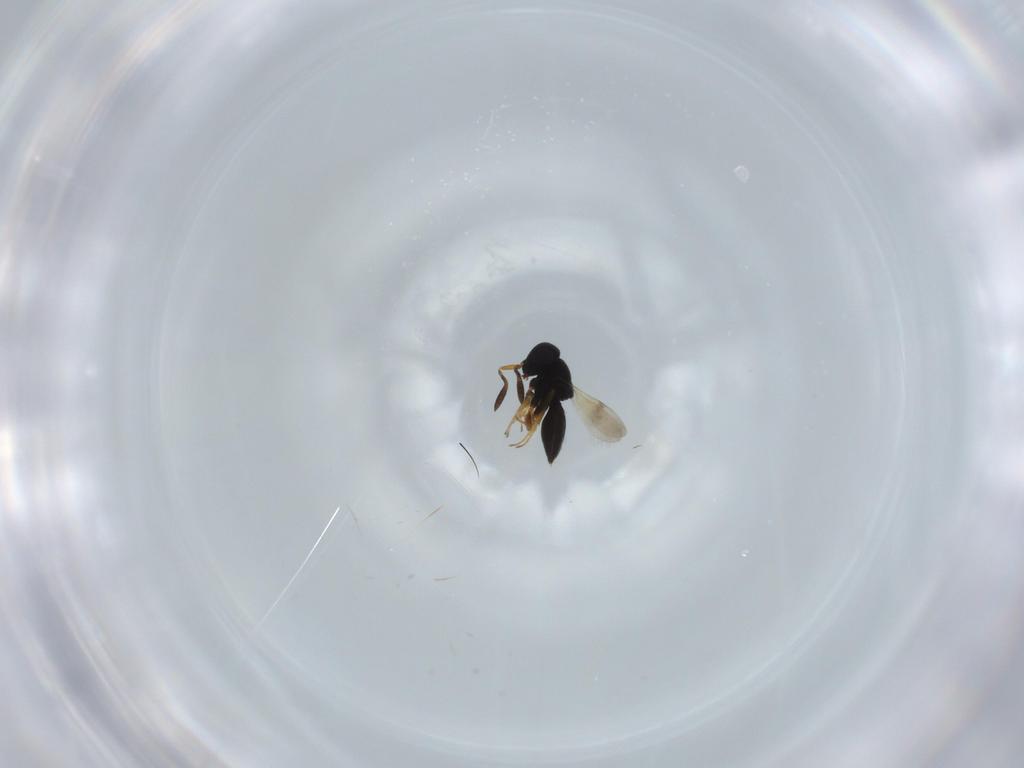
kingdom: Animalia
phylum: Arthropoda
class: Insecta
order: Hymenoptera
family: Scelionidae
